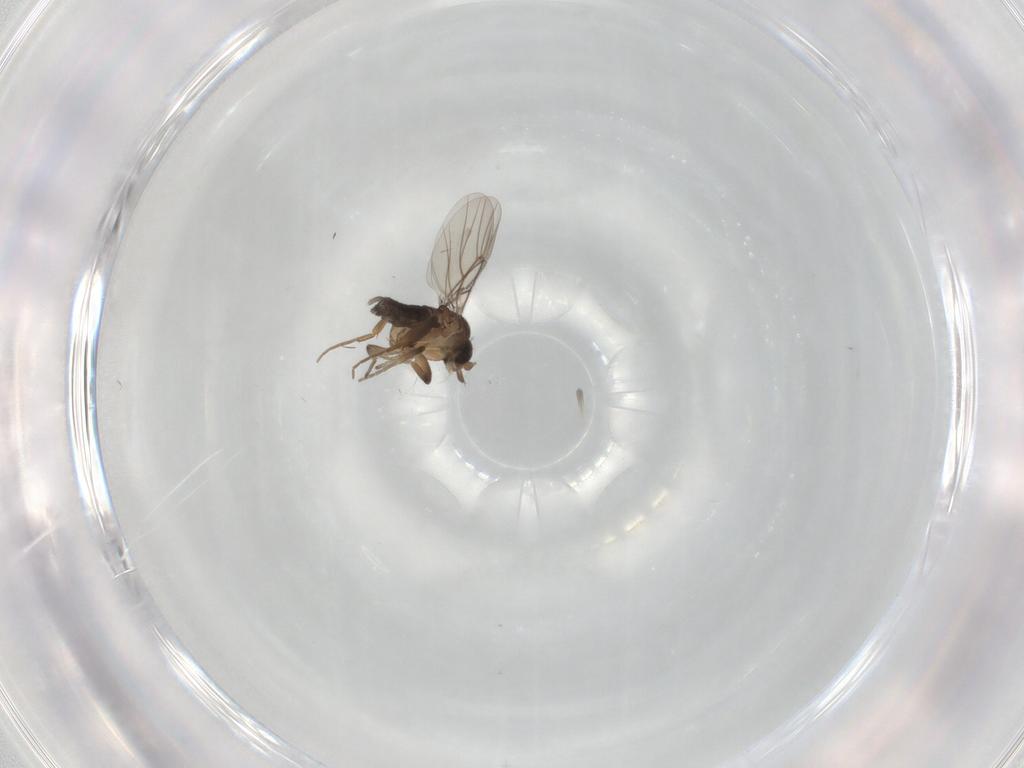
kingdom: Animalia
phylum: Arthropoda
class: Insecta
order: Diptera
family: Phoridae
